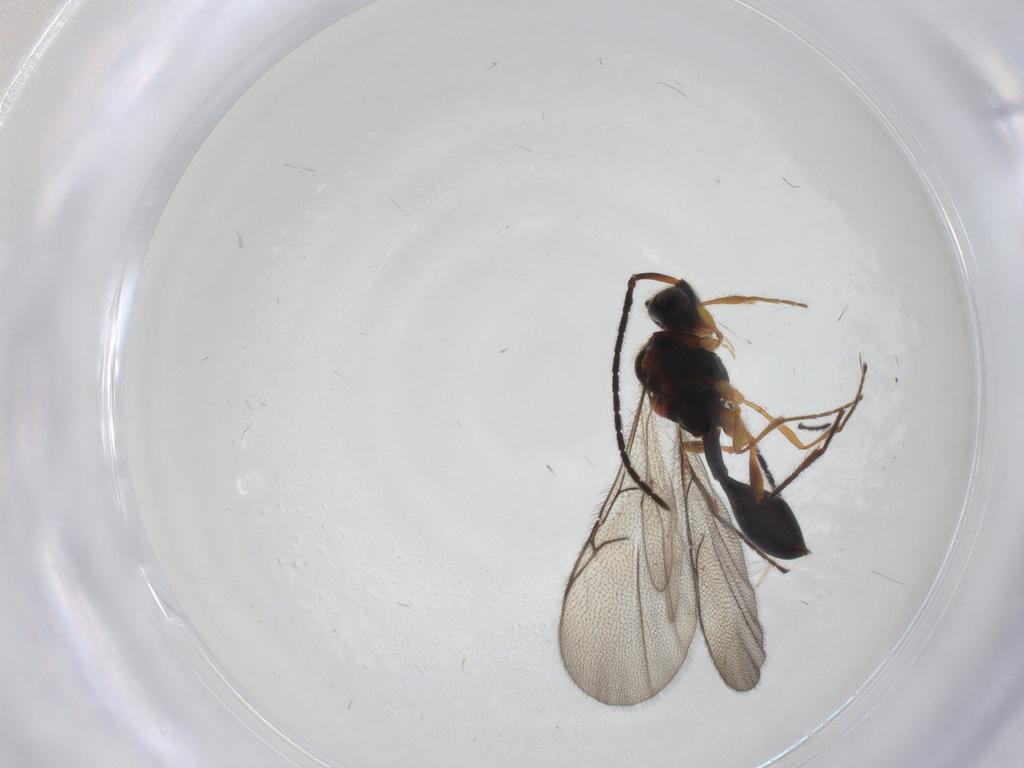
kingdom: Animalia
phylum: Arthropoda
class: Insecta
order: Hymenoptera
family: Diapriidae
